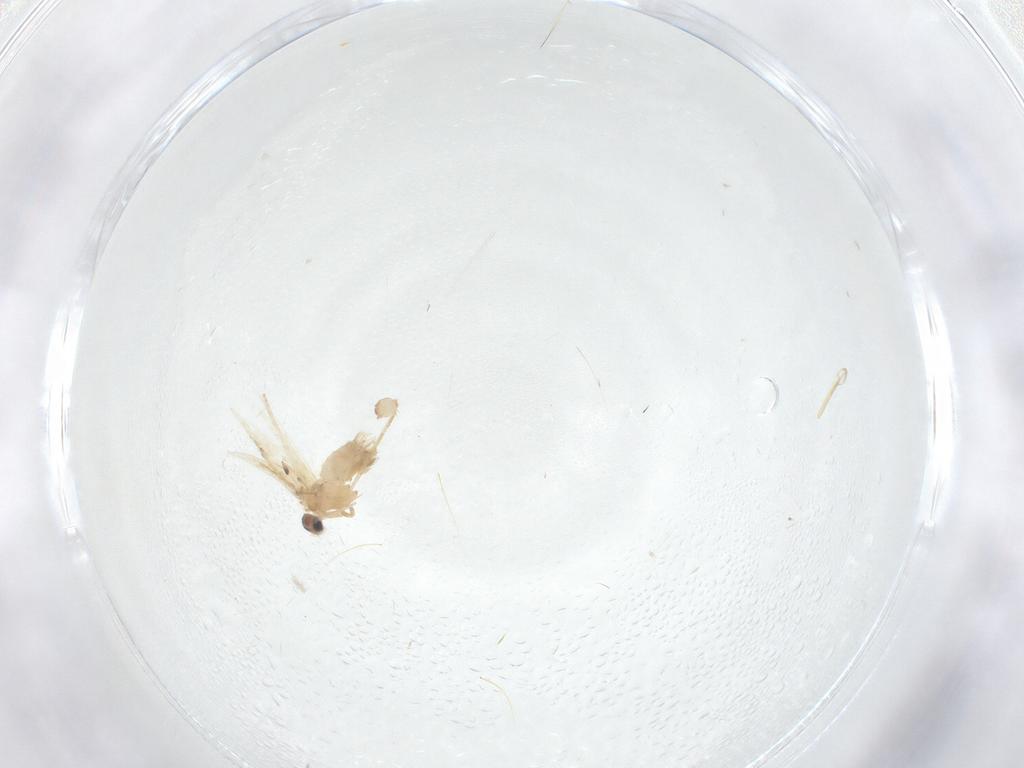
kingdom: Animalia
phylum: Arthropoda
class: Insecta
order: Lepidoptera
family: Nepticulidae
